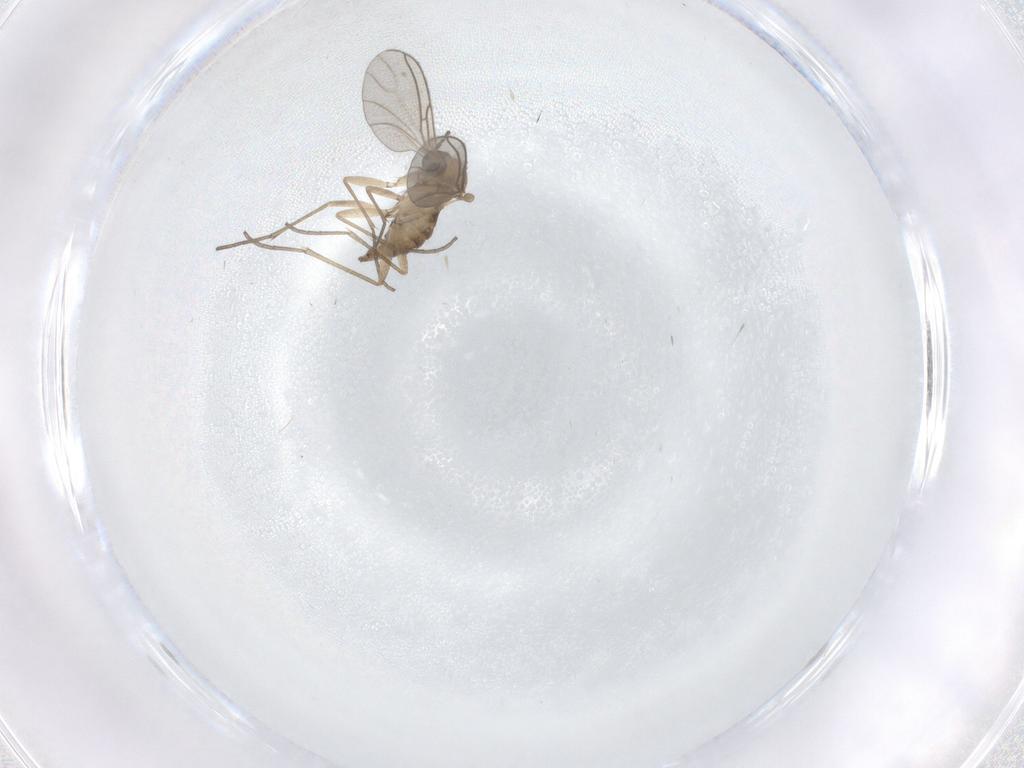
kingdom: Animalia
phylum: Arthropoda
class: Insecta
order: Diptera
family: Sciaridae
